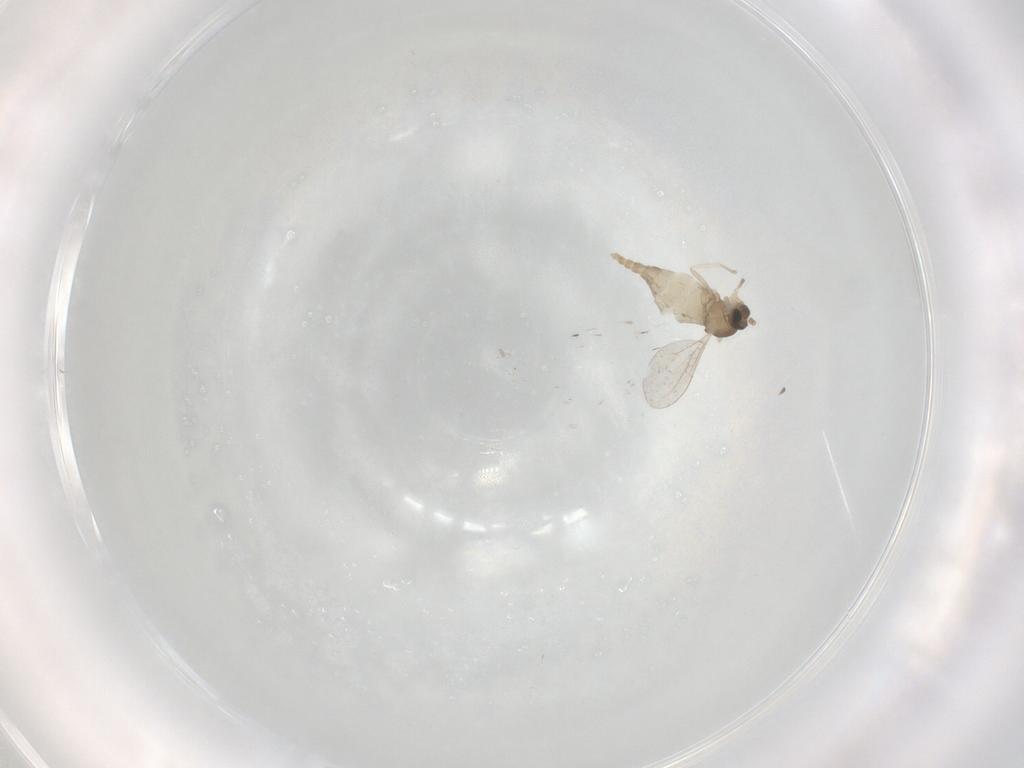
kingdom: Animalia
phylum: Arthropoda
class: Insecta
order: Diptera
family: Cecidomyiidae
